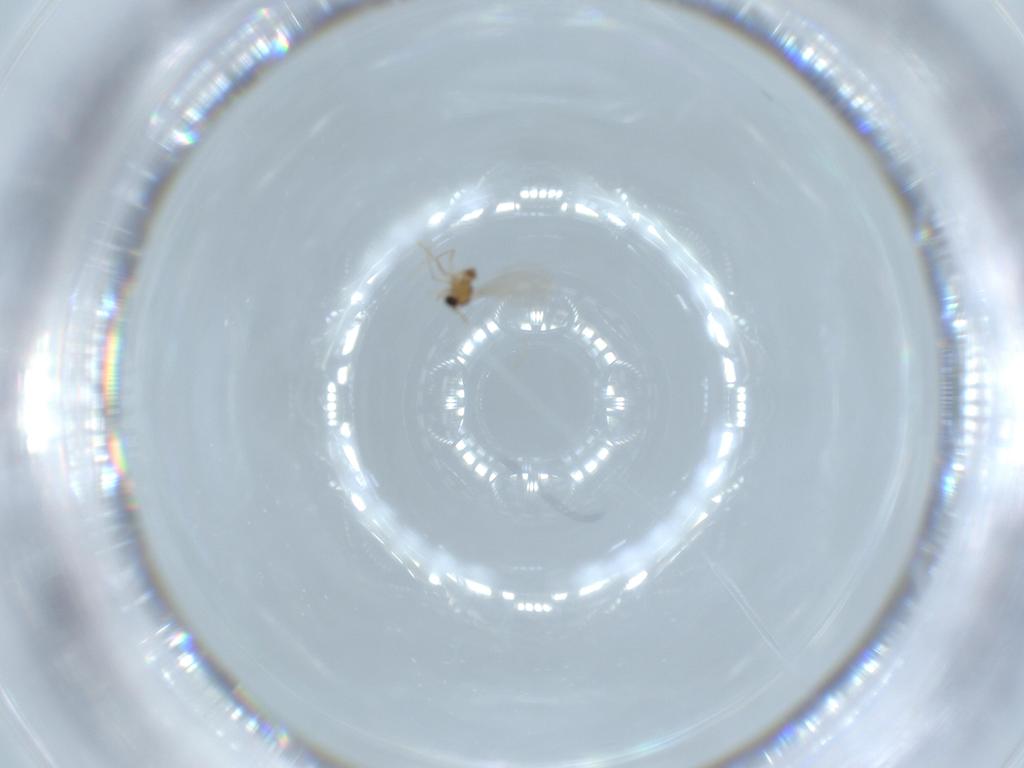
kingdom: Animalia
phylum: Arthropoda
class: Insecta
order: Diptera
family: Cecidomyiidae
